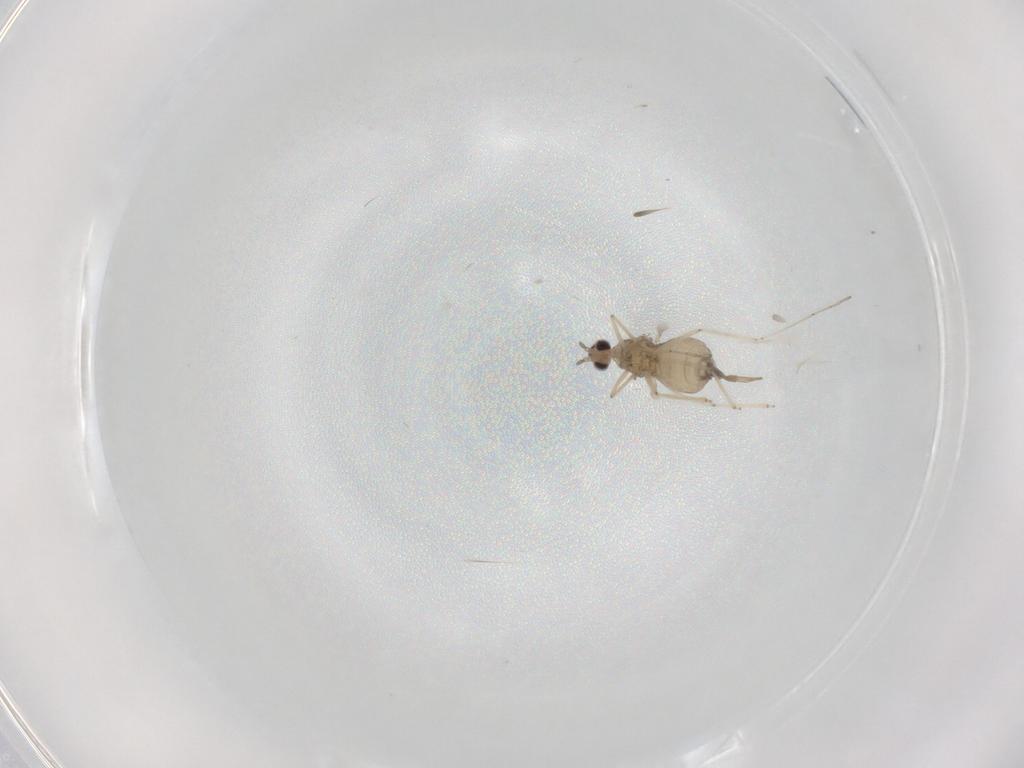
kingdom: Animalia
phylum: Arthropoda
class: Insecta
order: Diptera
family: Cecidomyiidae
